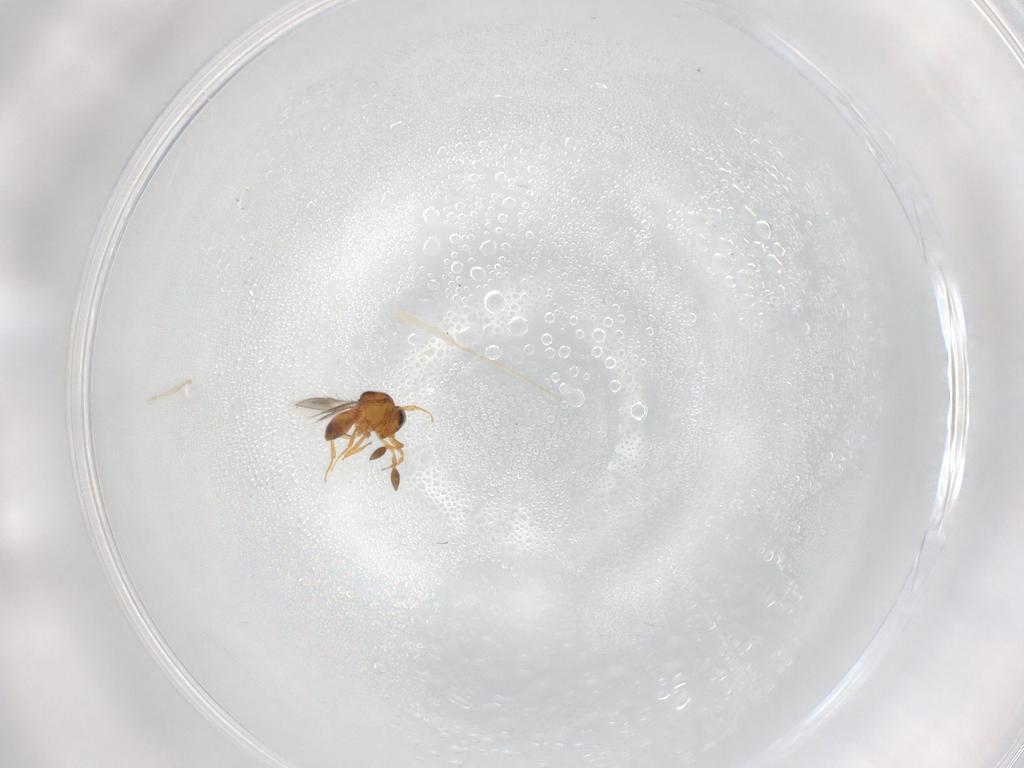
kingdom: Animalia
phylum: Arthropoda
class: Insecta
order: Hymenoptera
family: Scelionidae
